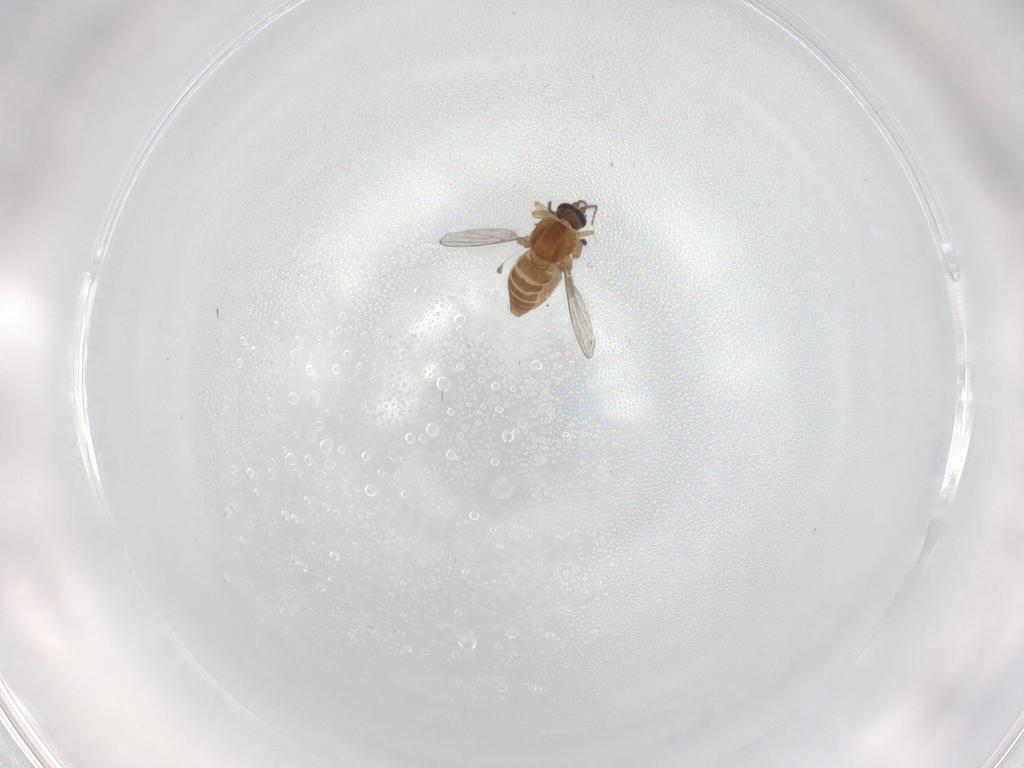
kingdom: Animalia
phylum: Arthropoda
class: Insecta
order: Diptera
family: Ceratopogonidae
